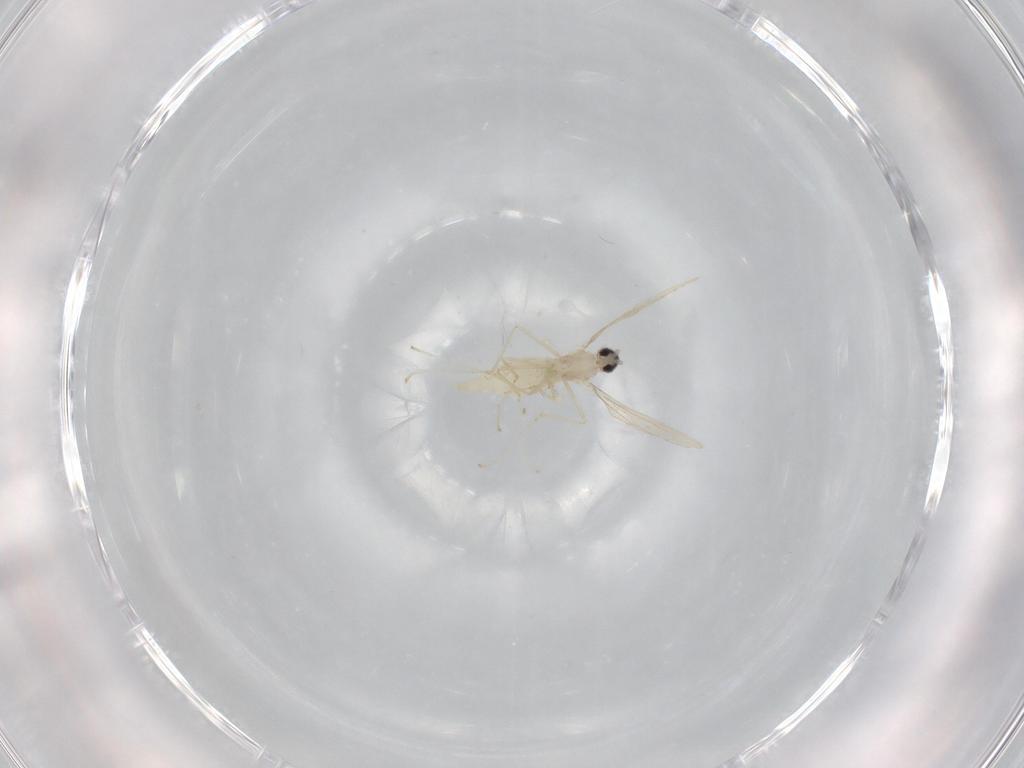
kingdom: Animalia
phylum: Arthropoda
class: Insecta
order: Diptera
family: Cecidomyiidae
